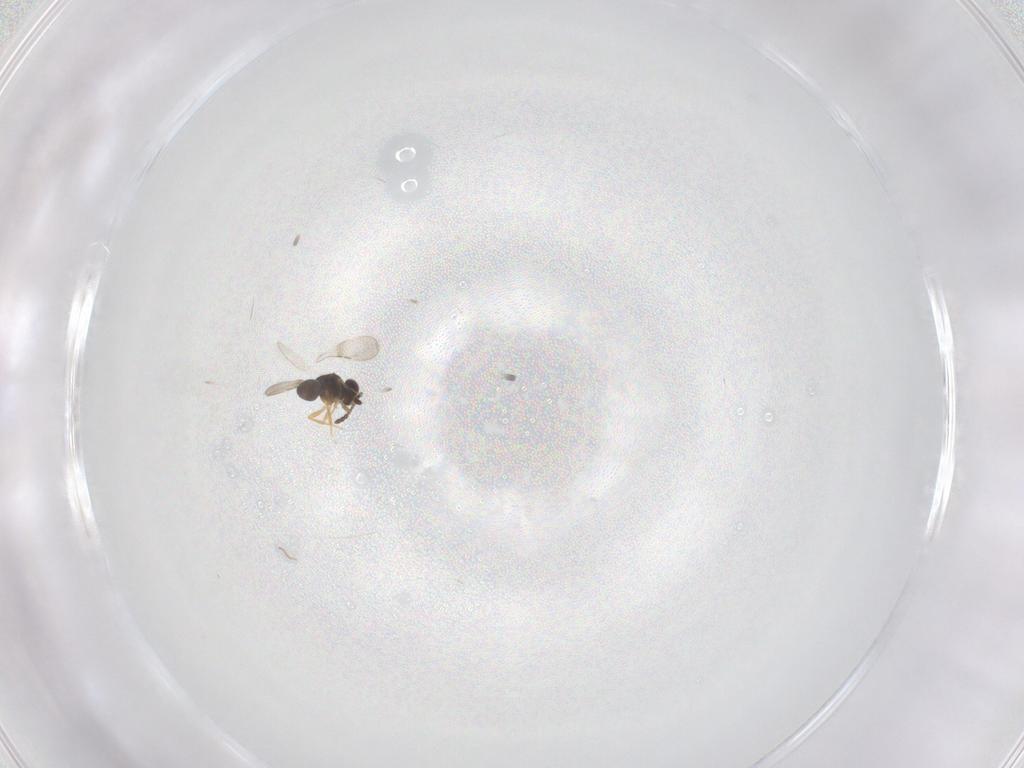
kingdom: Animalia
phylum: Arthropoda
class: Insecta
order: Hymenoptera
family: Ceraphronidae
